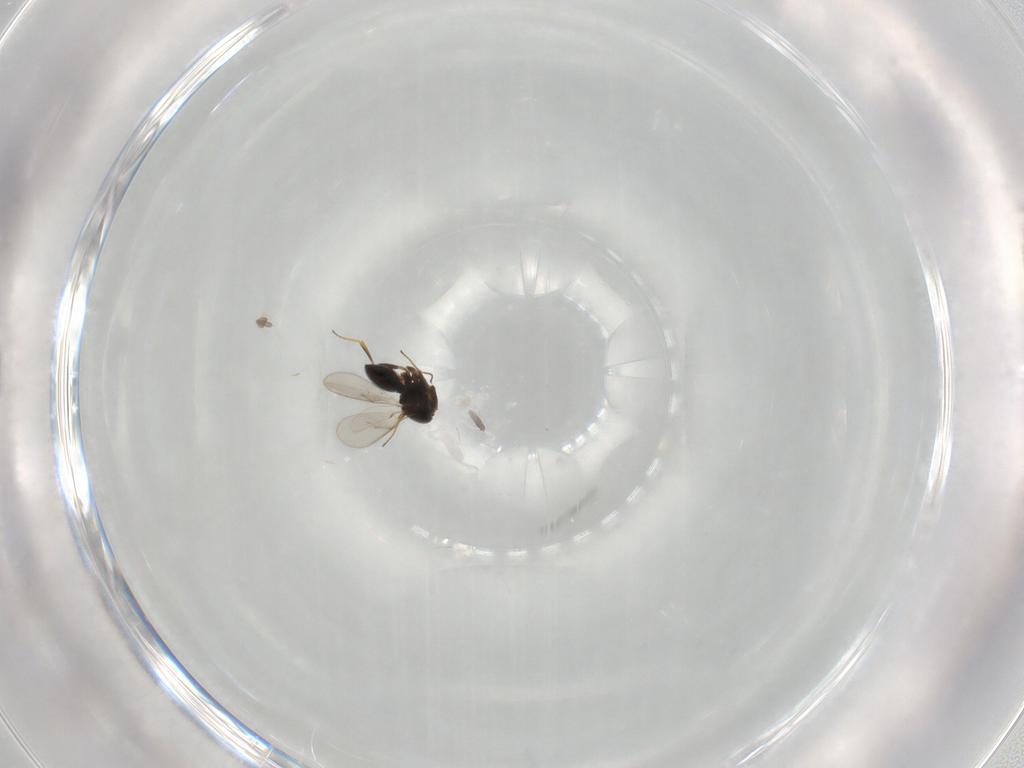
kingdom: Animalia
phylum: Arthropoda
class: Insecta
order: Hymenoptera
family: Scelionidae
